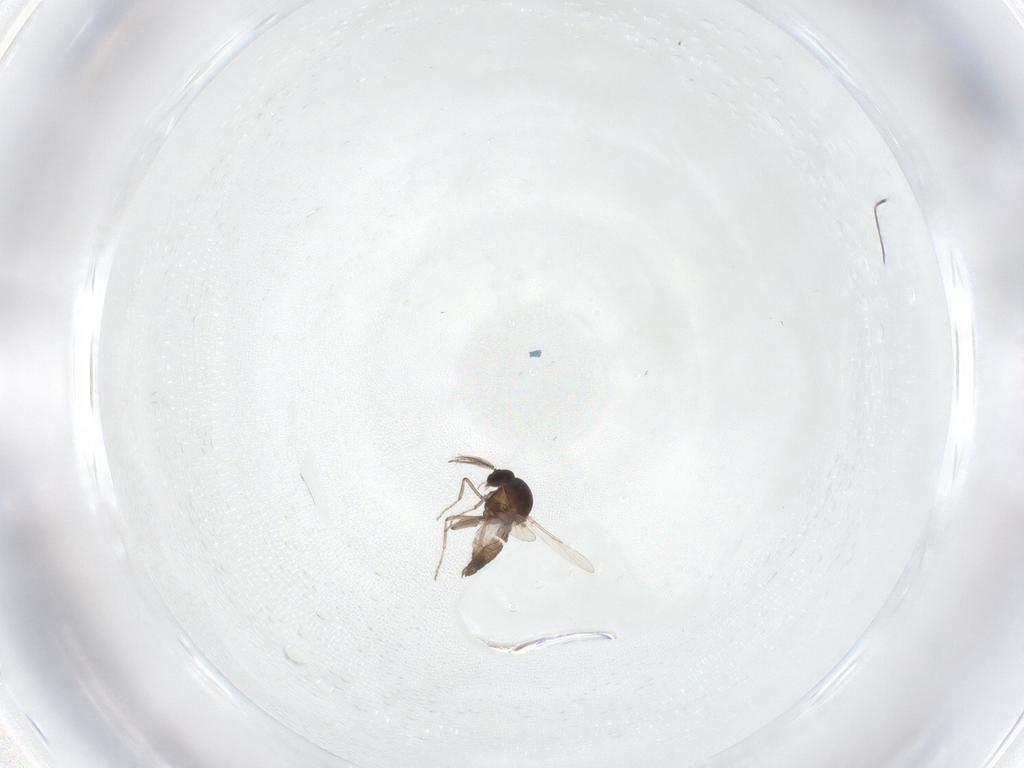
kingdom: Animalia
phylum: Arthropoda
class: Insecta
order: Diptera
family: Ceratopogonidae
